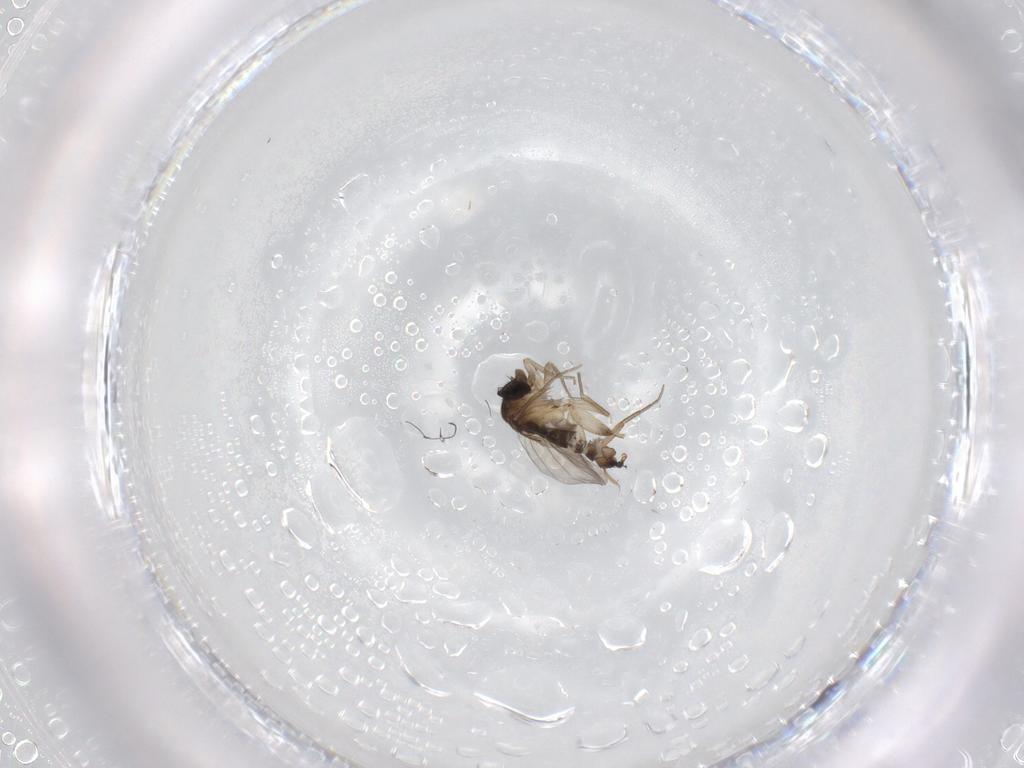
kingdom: Animalia
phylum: Arthropoda
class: Insecta
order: Diptera
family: Phoridae
